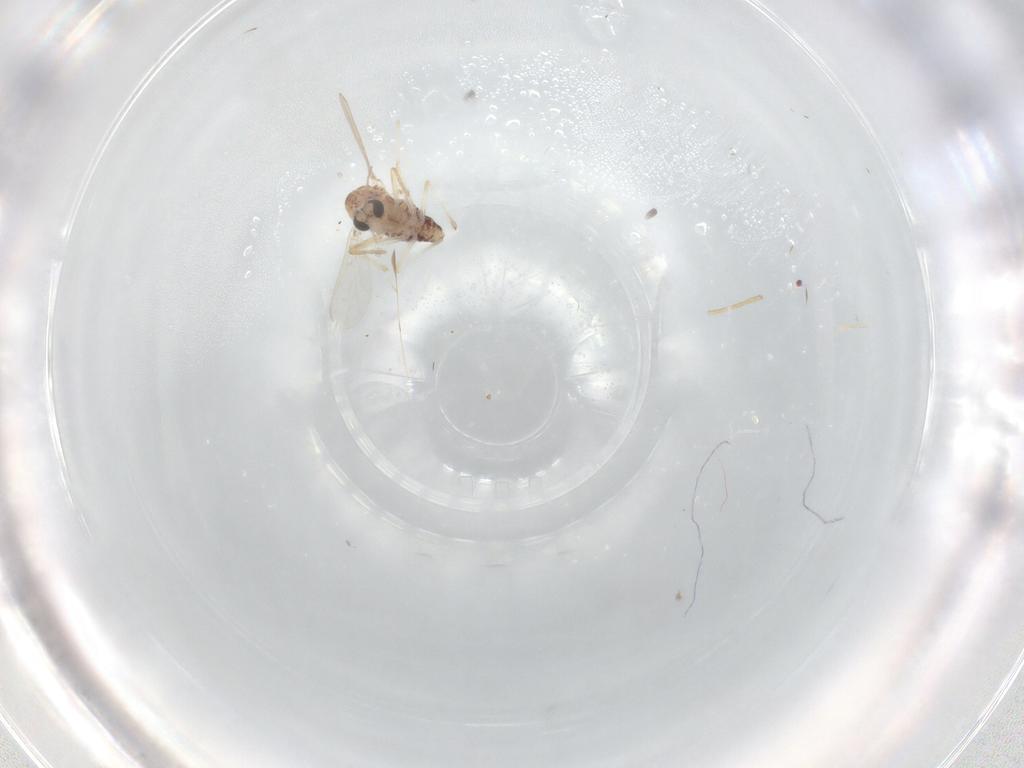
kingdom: Animalia
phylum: Arthropoda
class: Insecta
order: Diptera
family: Chironomidae
